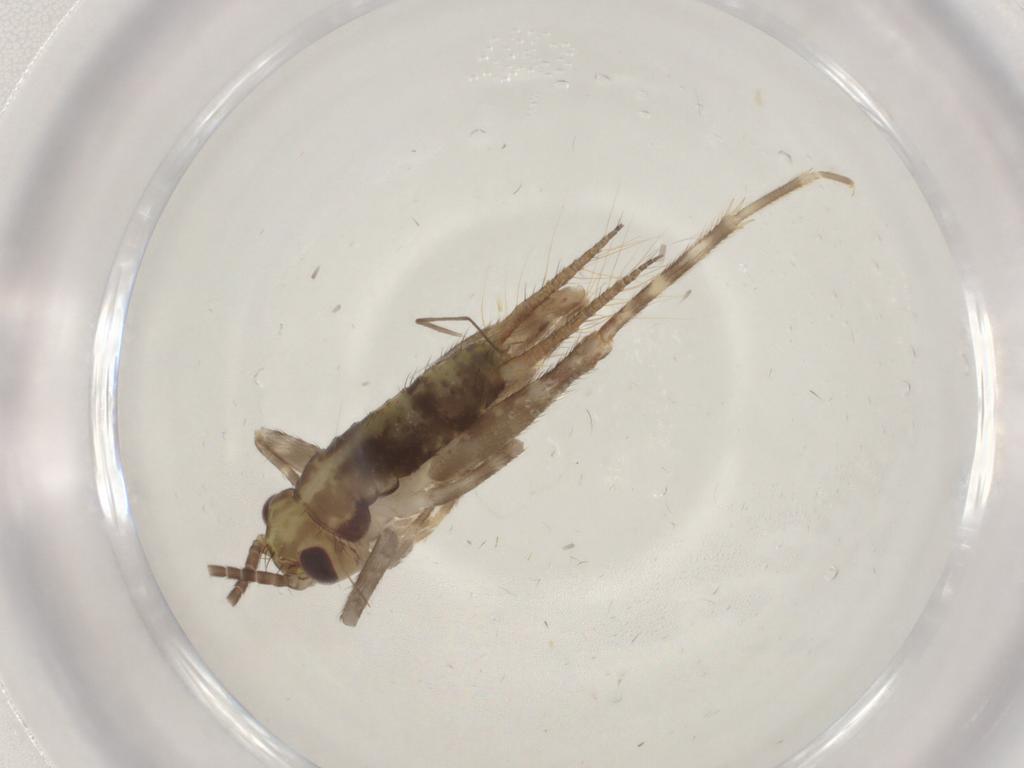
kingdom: Animalia
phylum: Arthropoda
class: Insecta
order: Orthoptera
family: Gryllidae
